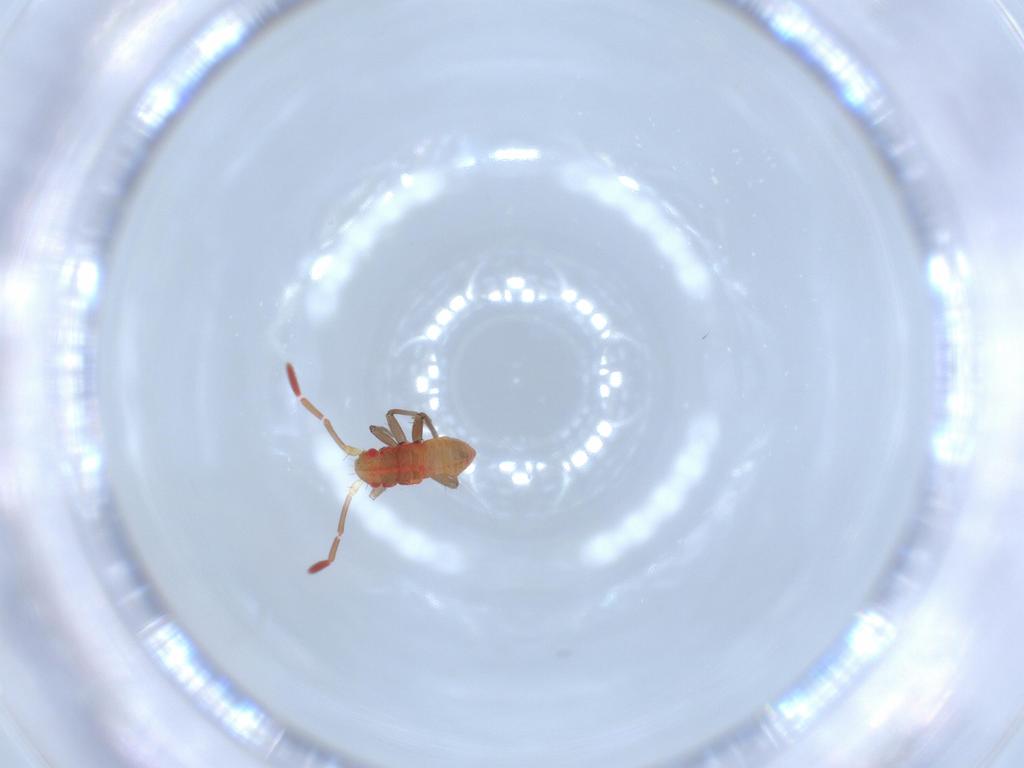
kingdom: Animalia
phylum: Arthropoda
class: Insecta
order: Hemiptera
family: Miridae
